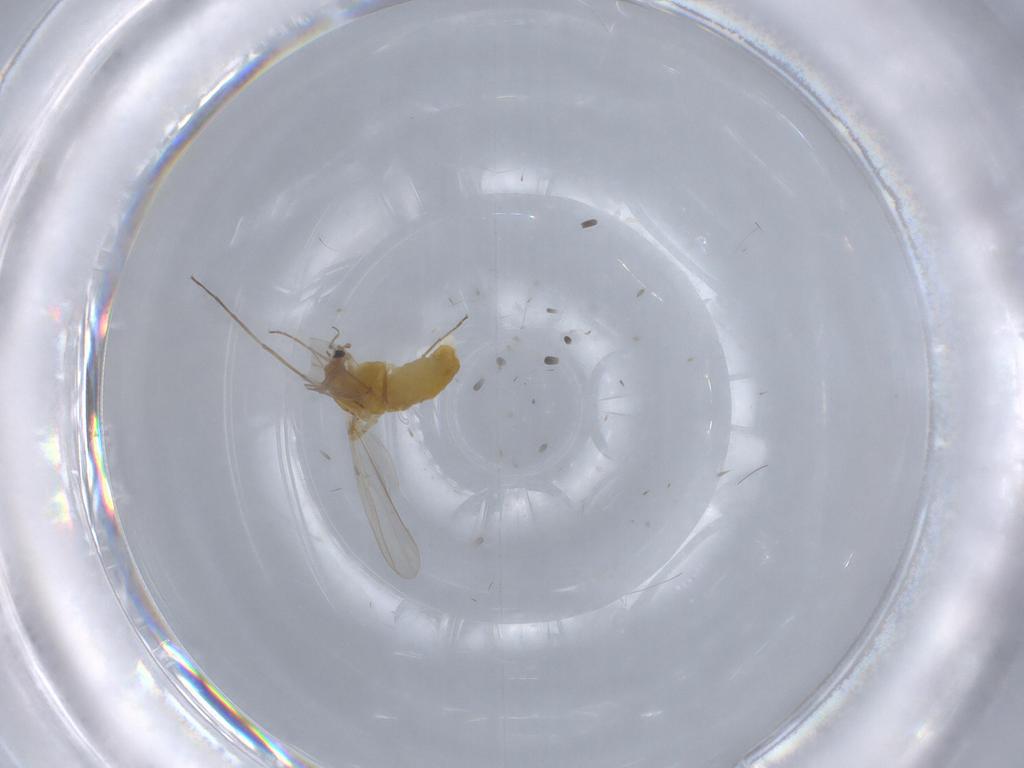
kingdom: Animalia
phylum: Arthropoda
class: Insecta
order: Diptera
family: Chironomidae
